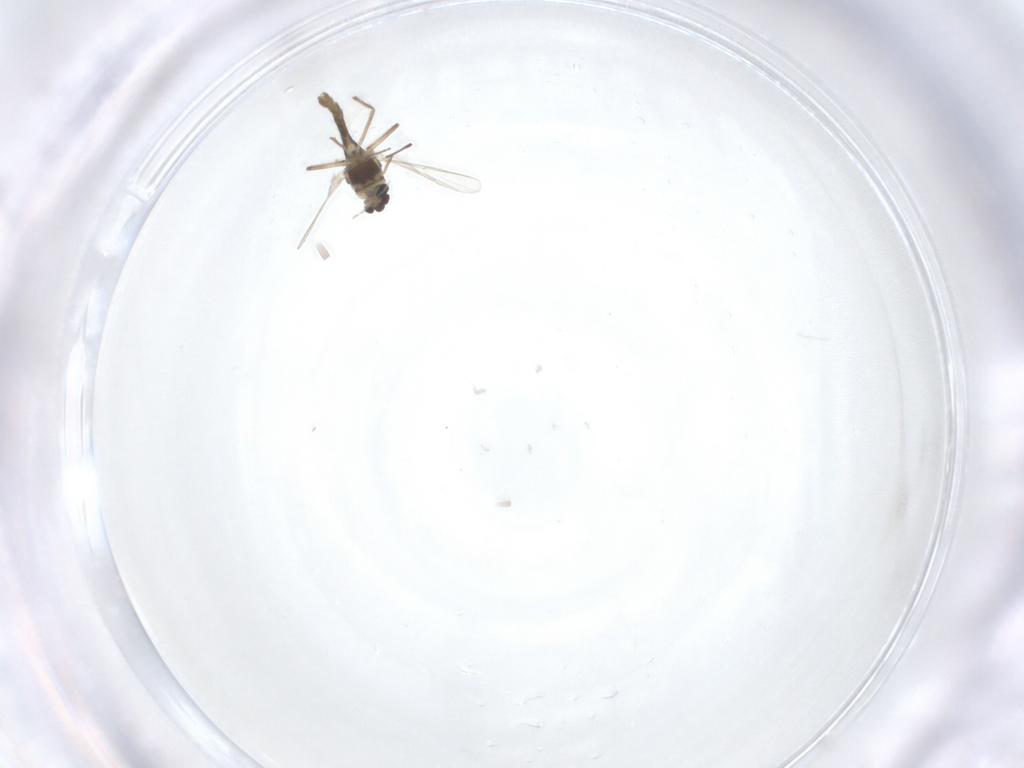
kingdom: Animalia
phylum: Arthropoda
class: Insecta
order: Diptera
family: Chironomidae
